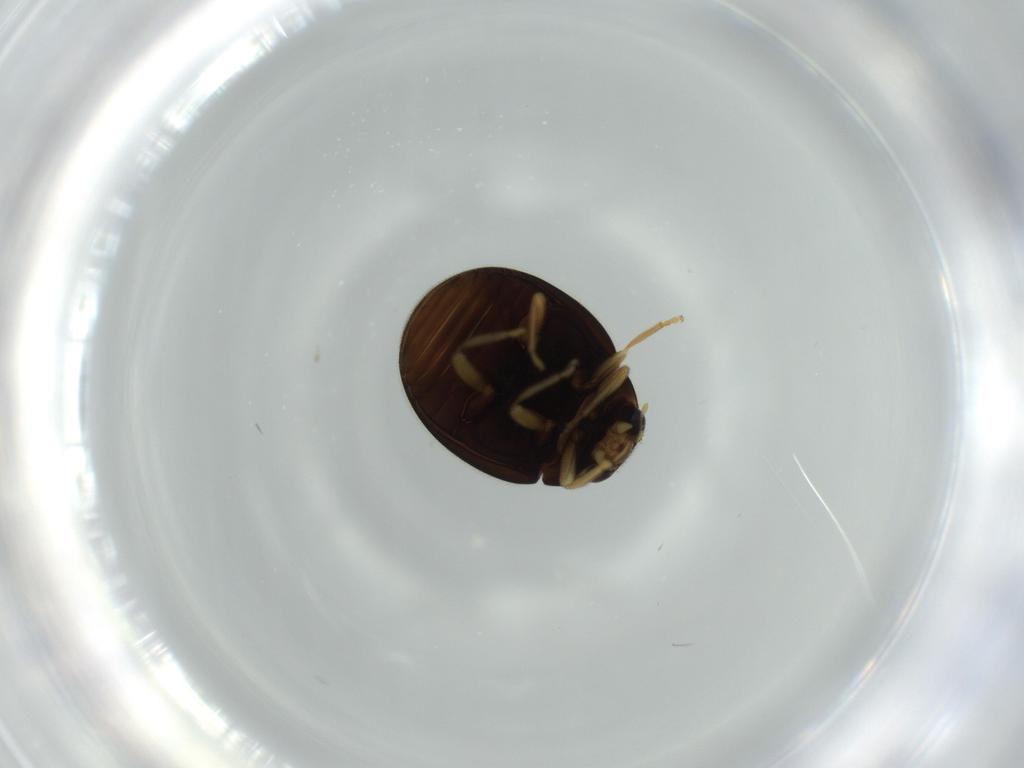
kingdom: Animalia
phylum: Arthropoda
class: Insecta
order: Coleoptera
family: Coccinellidae
